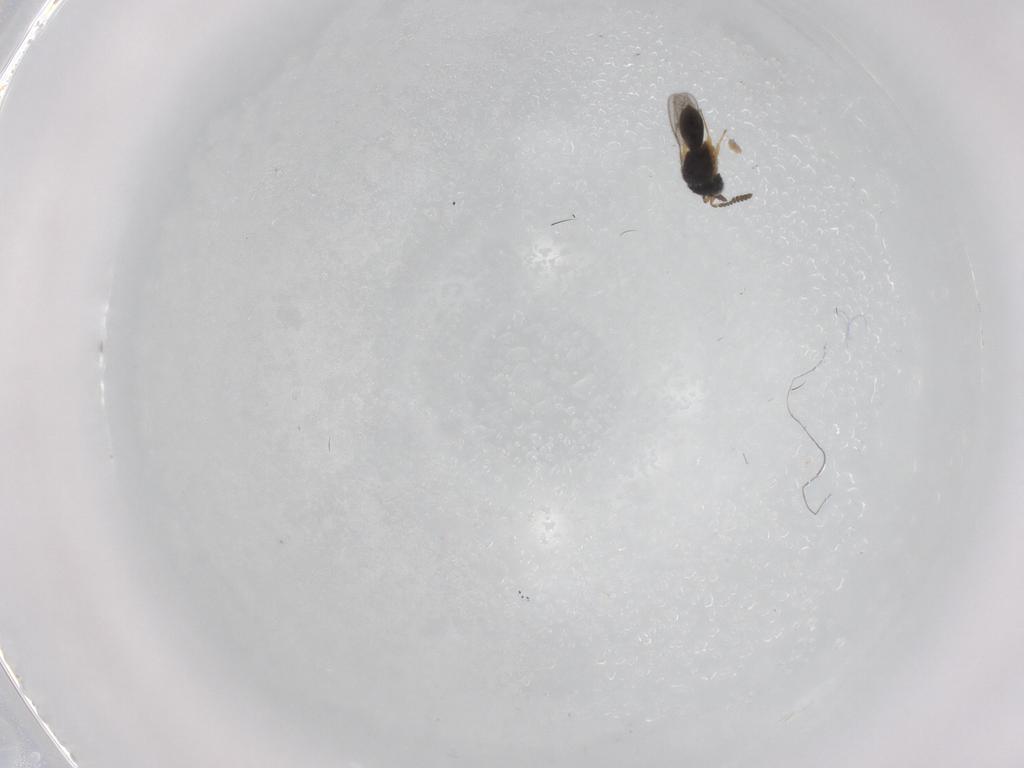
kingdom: Animalia
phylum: Arthropoda
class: Insecta
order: Hymenoptera
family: Scelionidae
